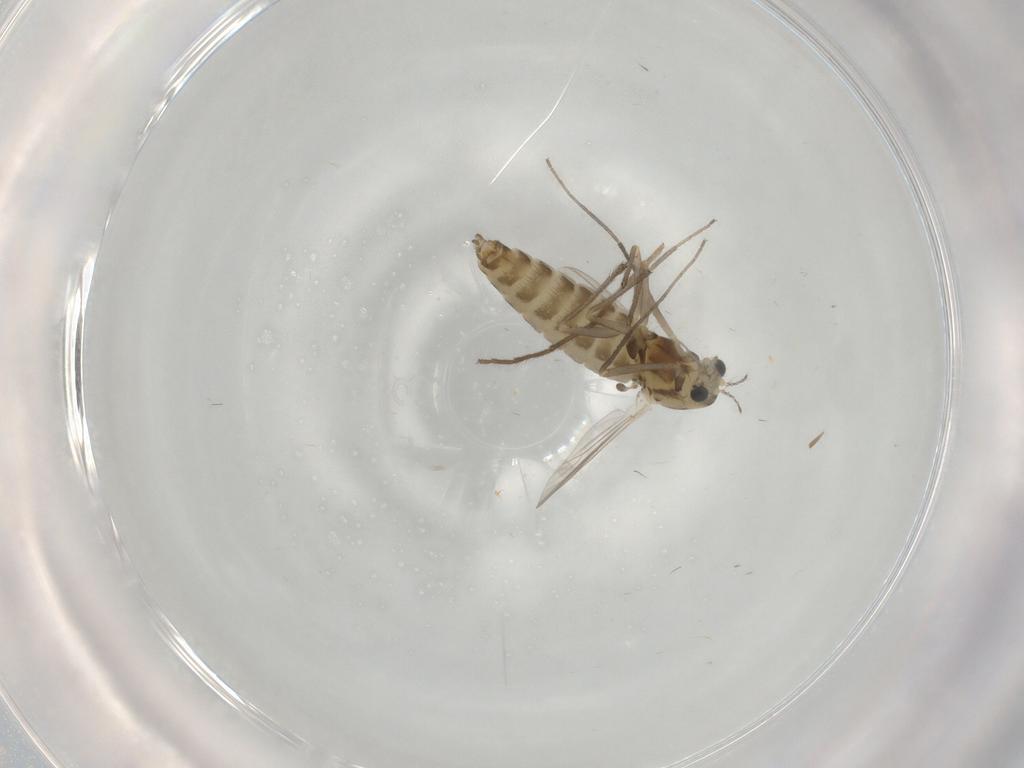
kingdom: Animalia
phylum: Arthropoda
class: Insecta
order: Diptera
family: Chironomidae
